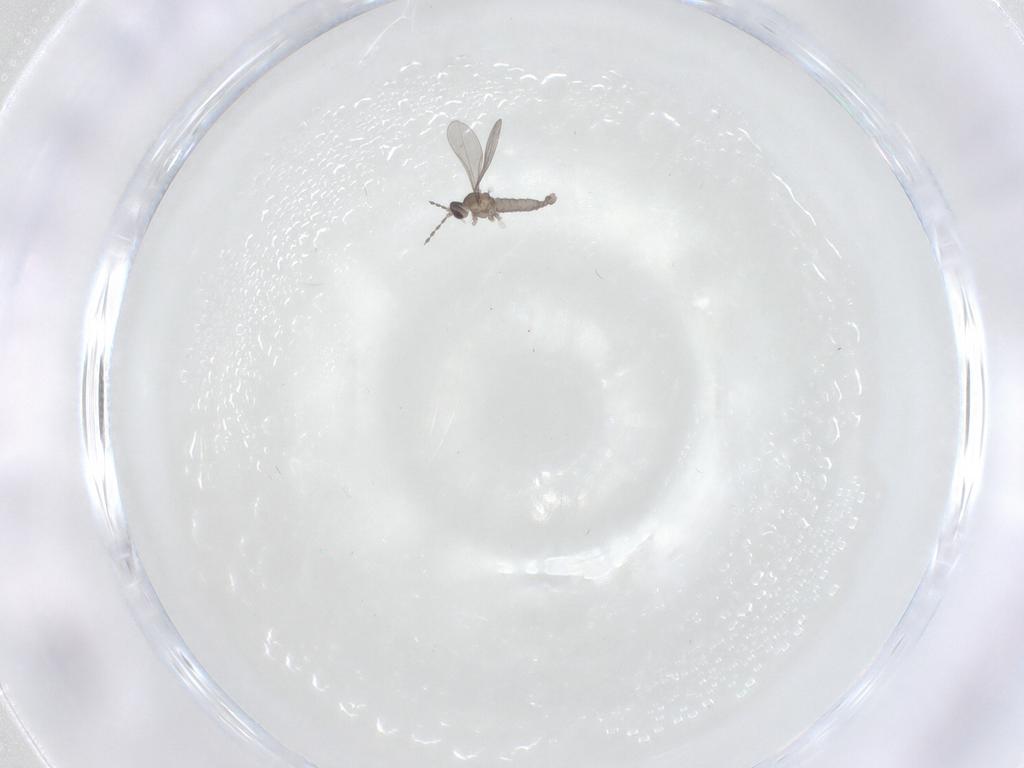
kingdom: Animalia
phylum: Arthropoda
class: Insecta
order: Diptera
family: Cecidomyiidae
